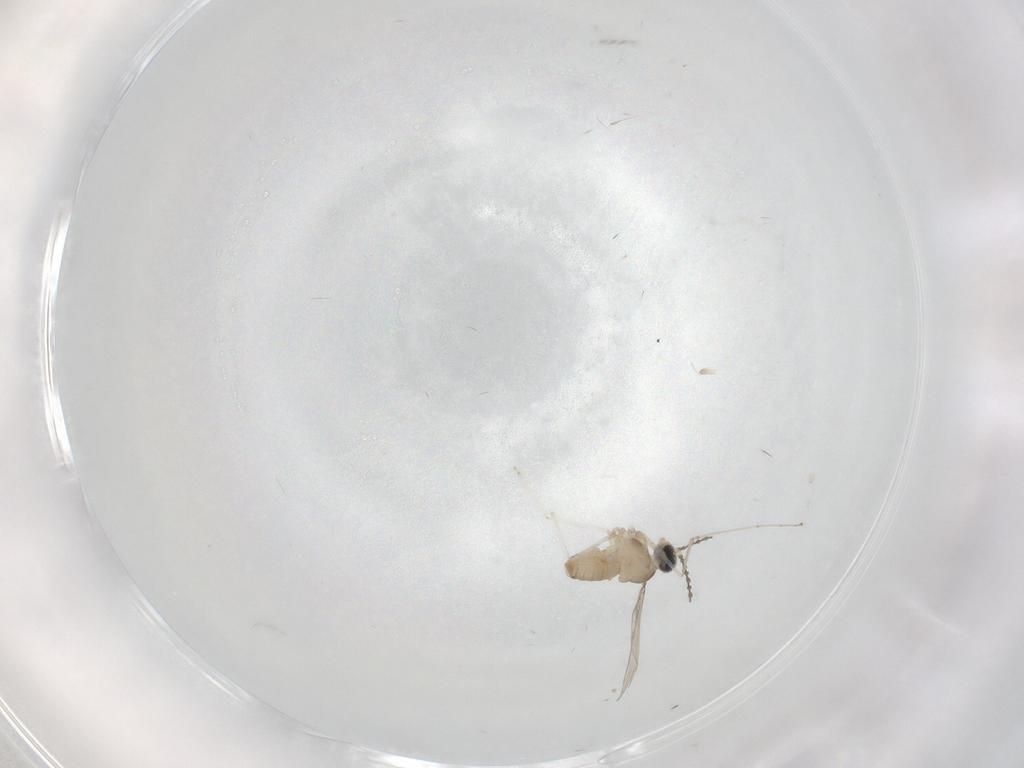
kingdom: Animalia
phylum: Arthropoda
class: Insecta
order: Diptera
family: Cecidomyiidae
